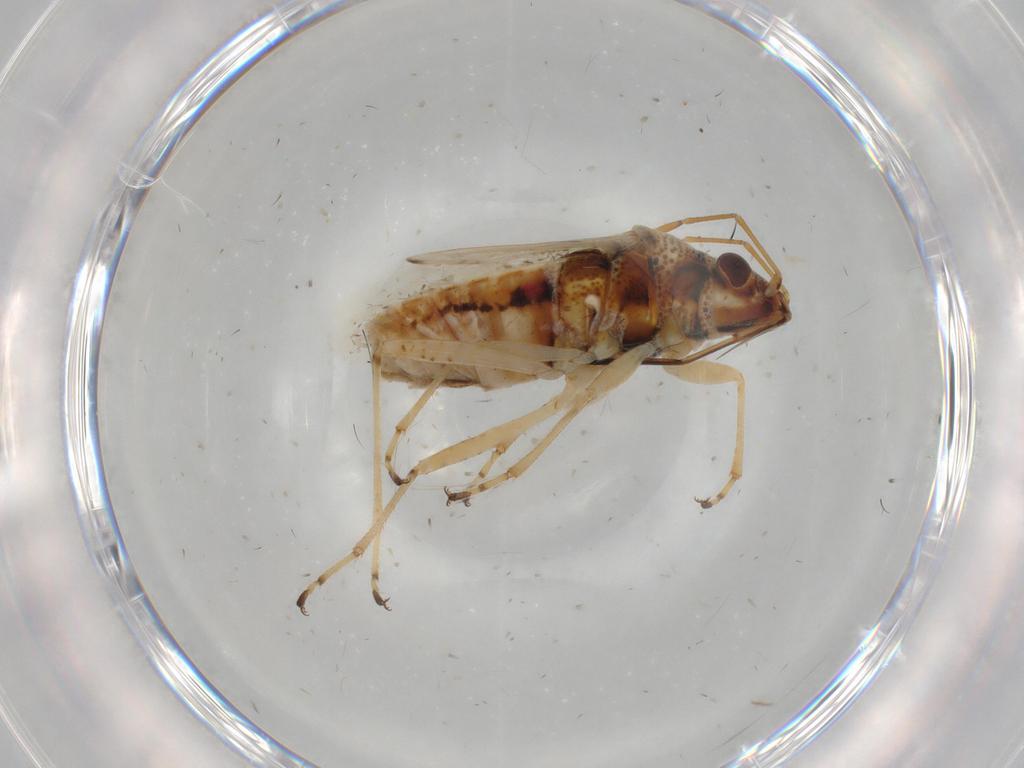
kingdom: Animalia
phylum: Arthropoda
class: Insecta
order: Hemiptera
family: Lygaeidae
